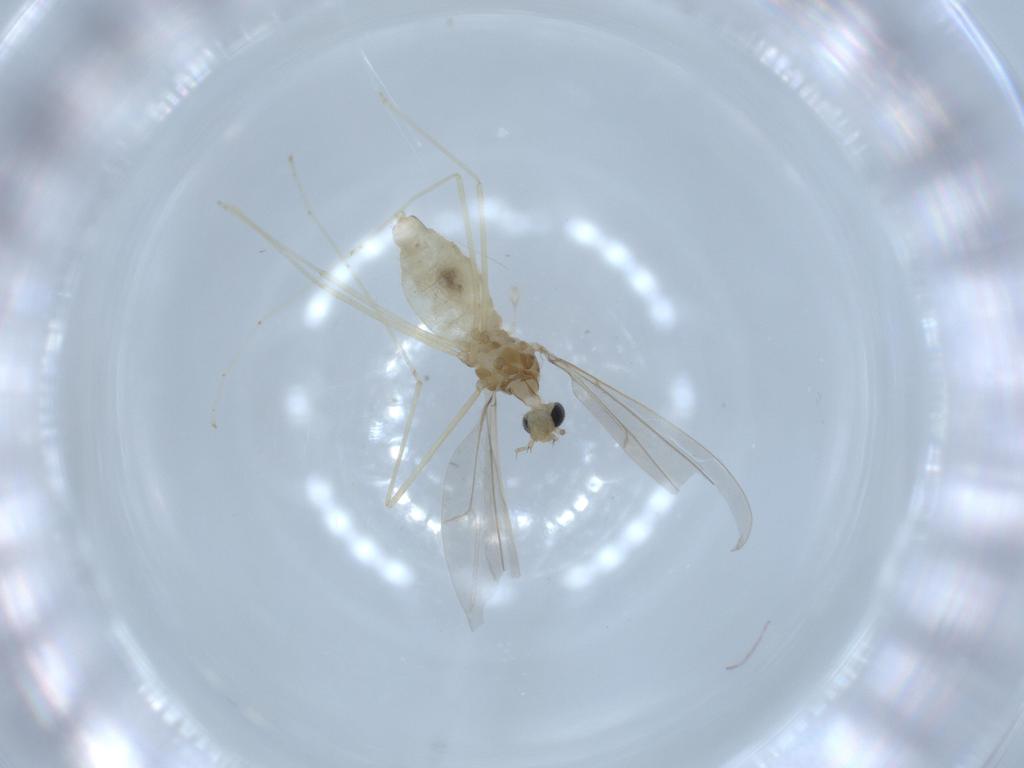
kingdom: Animalia
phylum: Arthropoda
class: Insecta
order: Diptera
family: Cecidomyiidae
